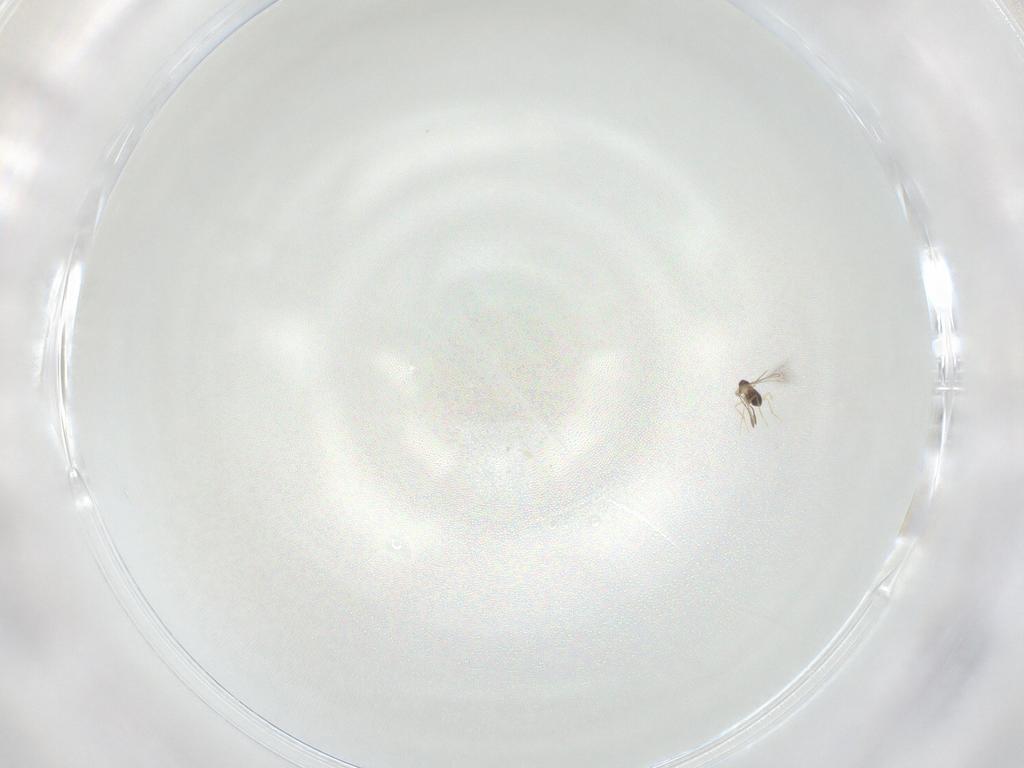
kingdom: Animalia
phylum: Arthropoda
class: Insecta
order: Diptera
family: Chironomidae
